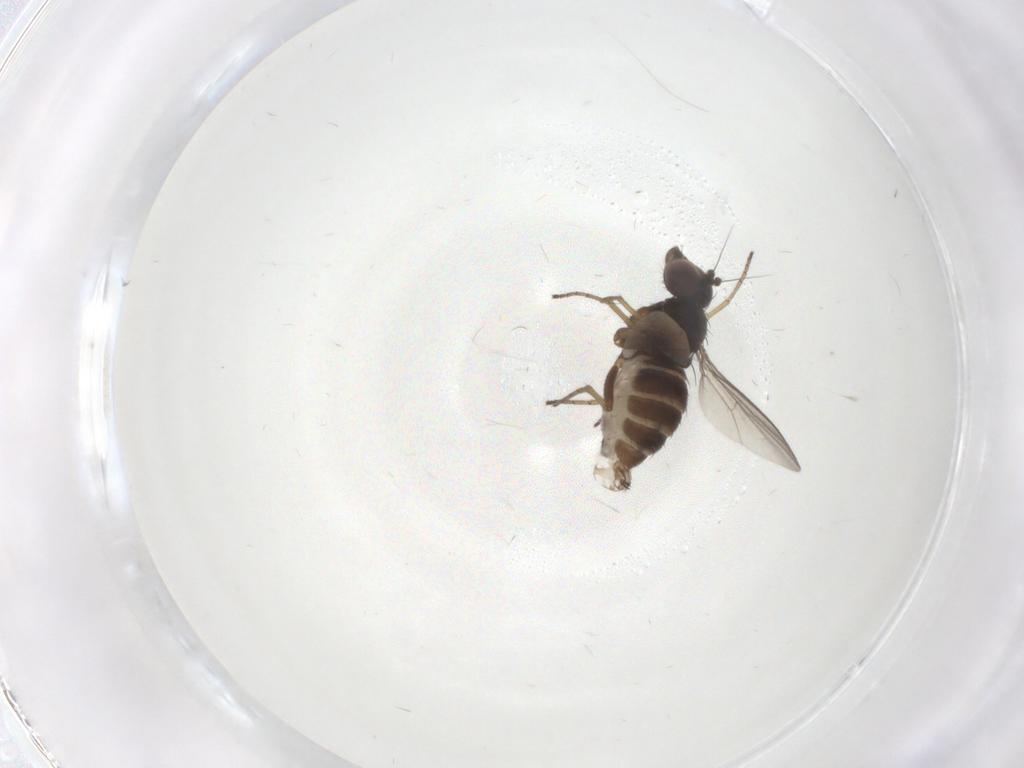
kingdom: Animalia
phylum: Arthropoda
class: Insecta
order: Diptera
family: Dolichopodidae
